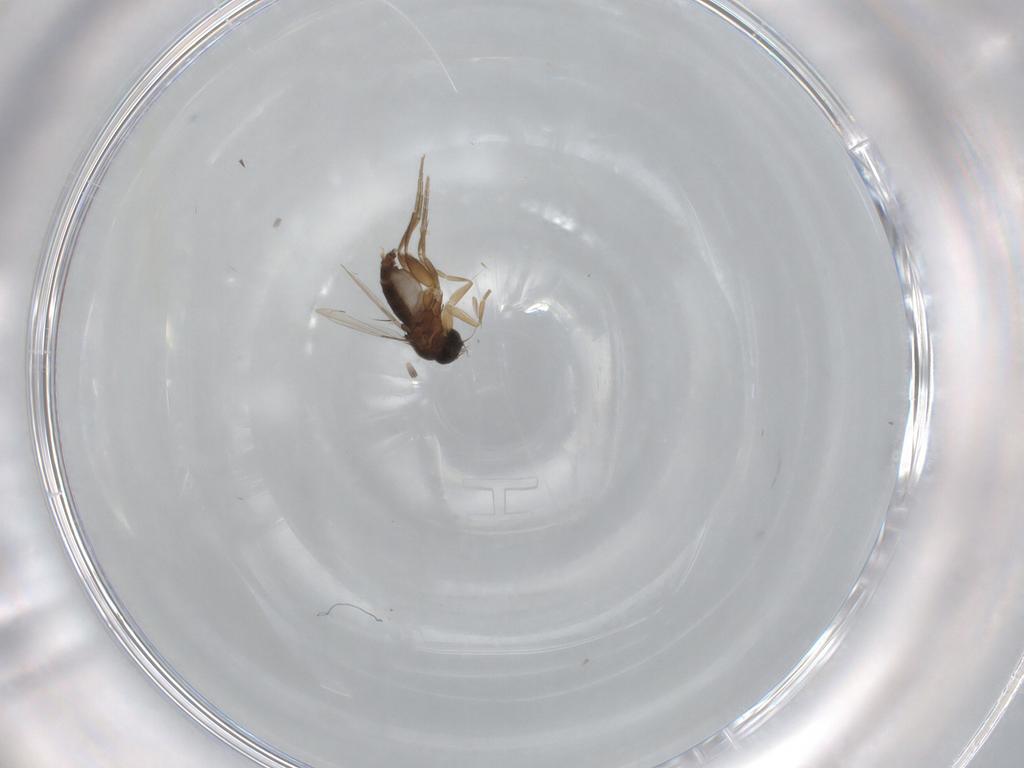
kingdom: Animalia
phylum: Arthropoda
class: Insecta
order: Diptera
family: Phoridae
